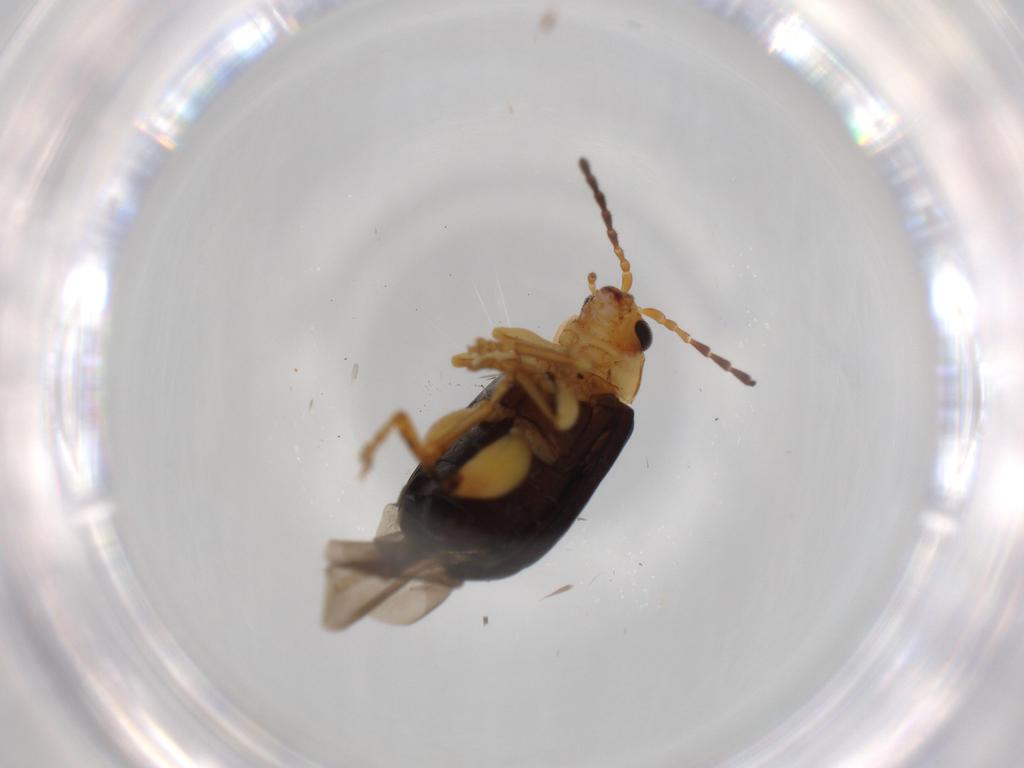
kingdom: Animalia
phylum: Arthropoda
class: Insecta
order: Coleoptera
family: Chrysomelidae
